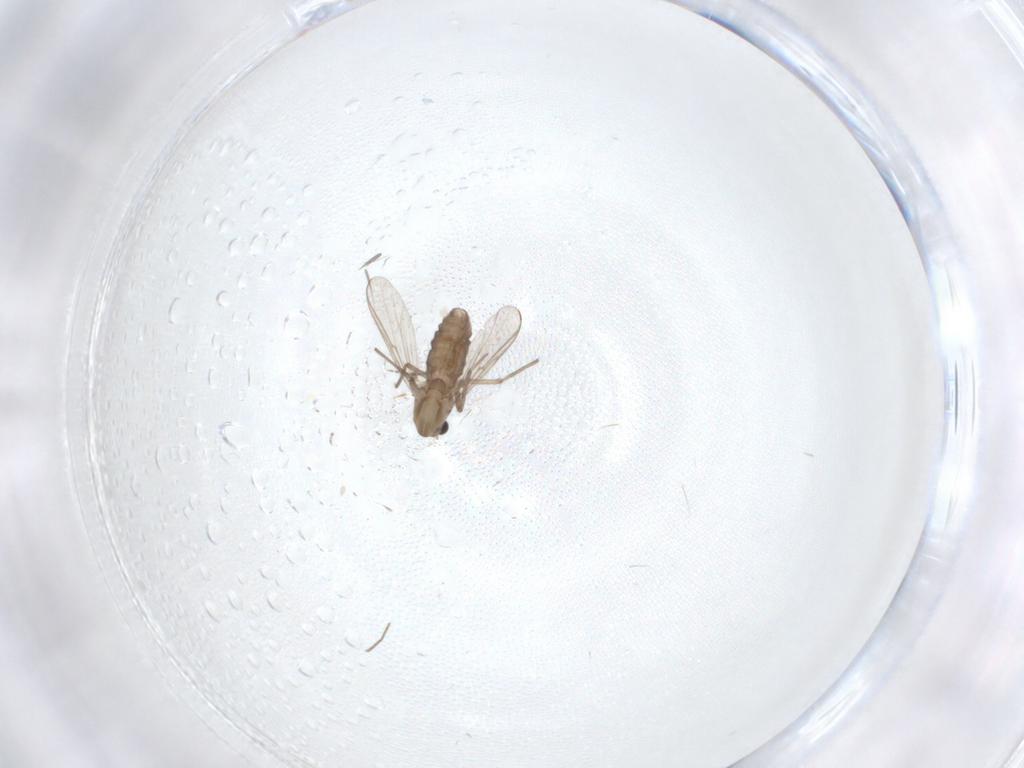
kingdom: Animalia
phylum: Arthropoda
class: Insecta
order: Diptera
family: Chironomidae
